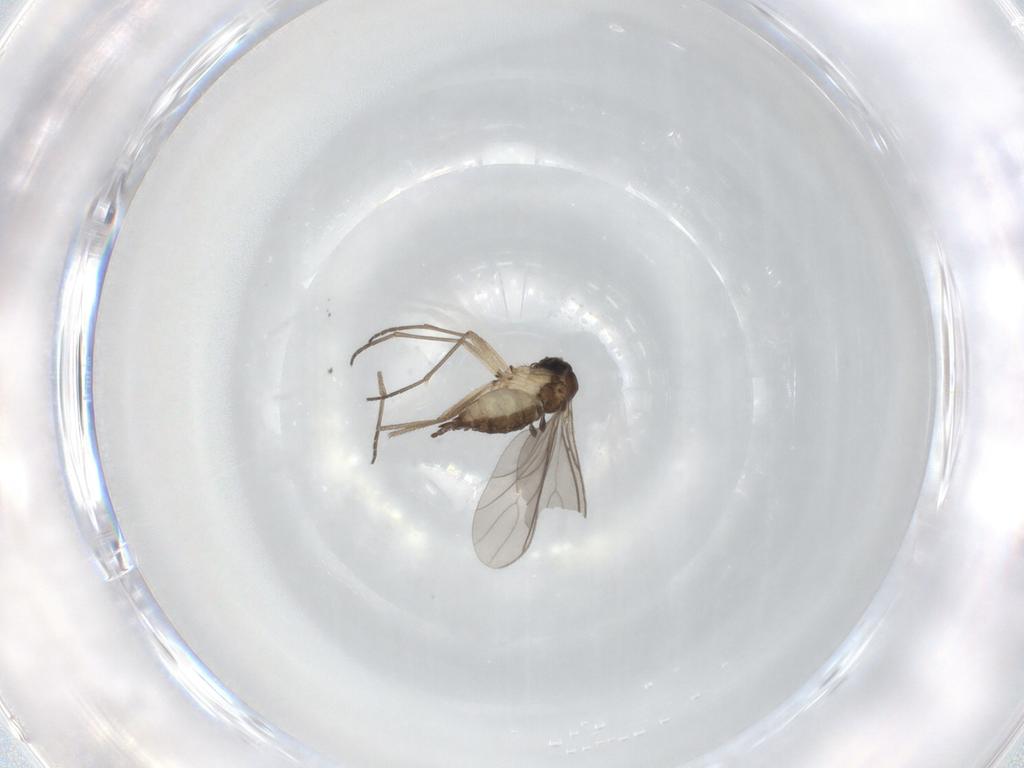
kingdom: Animalia
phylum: Arthropoda
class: Insecta
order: Diptera
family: Sciaridae
